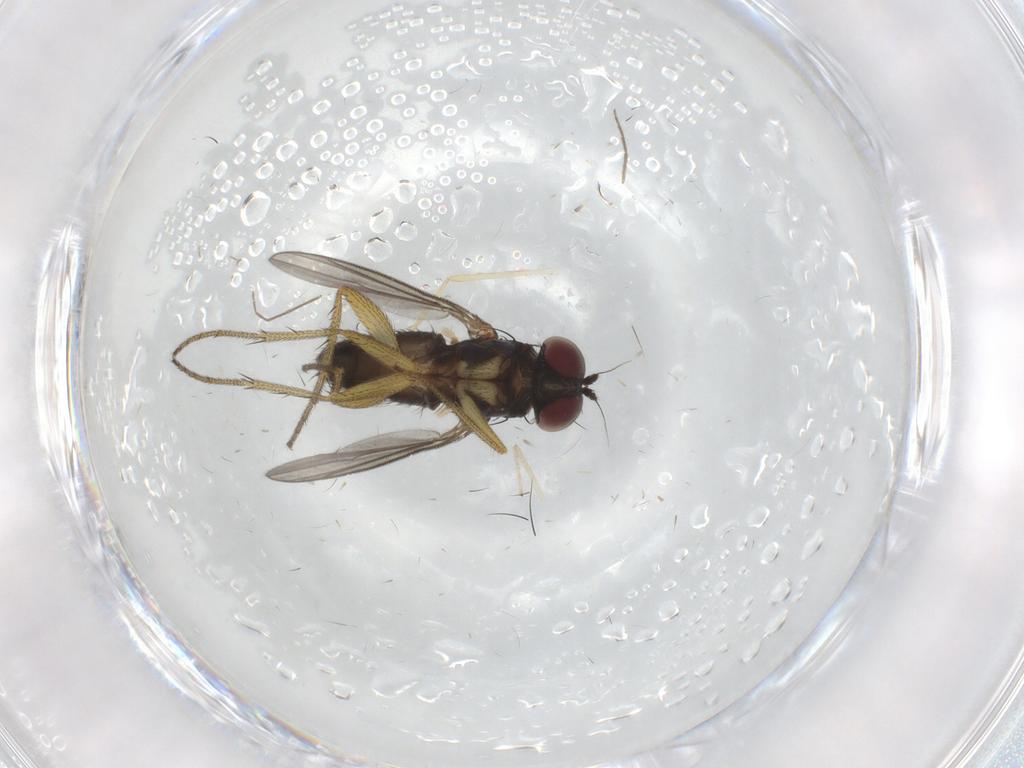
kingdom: Animalia
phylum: Arthropoda
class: Insecta
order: Diptera
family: Chironomidae
